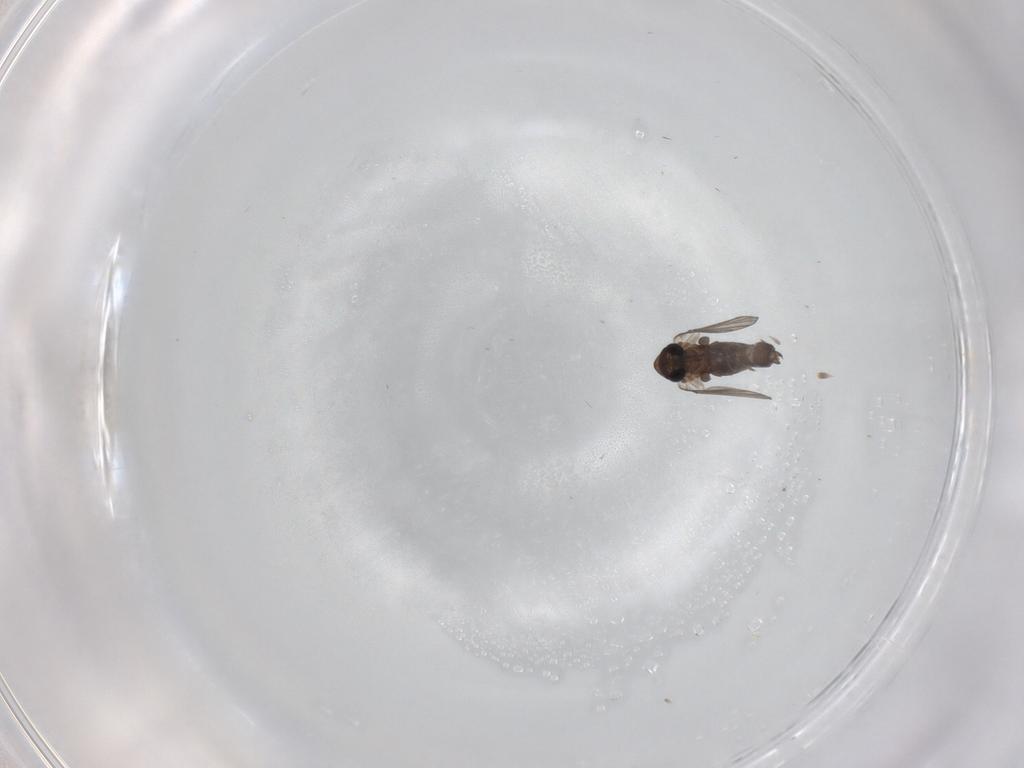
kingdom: Animalia
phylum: Arthropoda
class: Insecta
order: Diptera
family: Psychodidae
